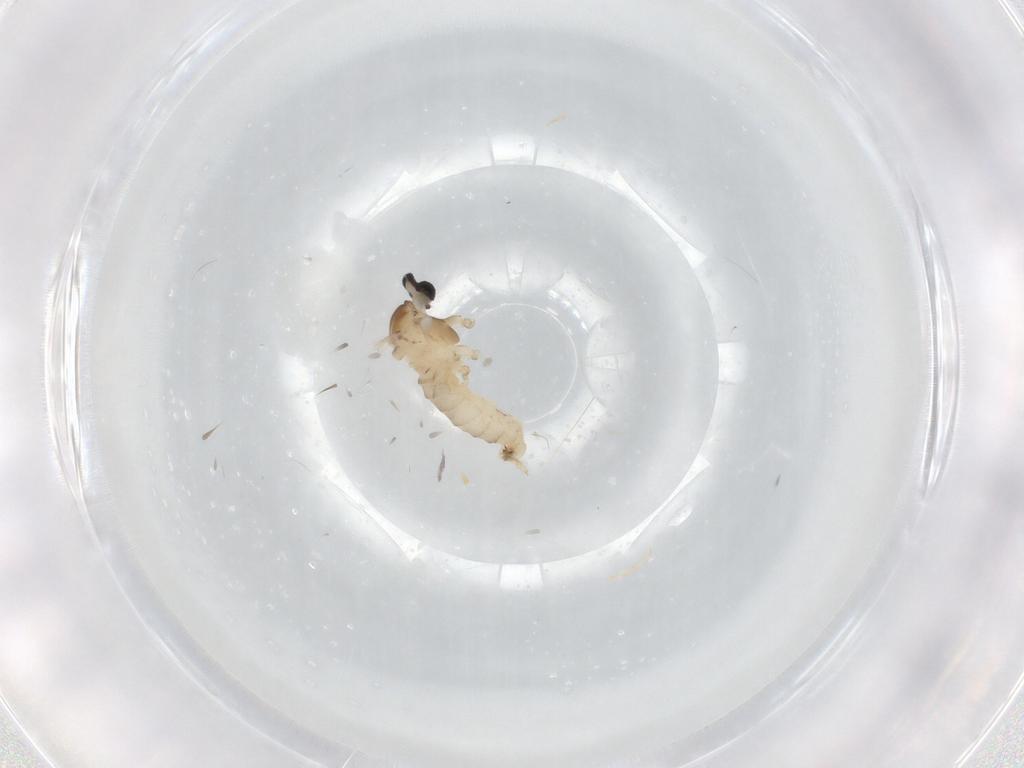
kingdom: Animalia
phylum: Arthropoda
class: Insecta
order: Diptera
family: Cecidomyiidae
